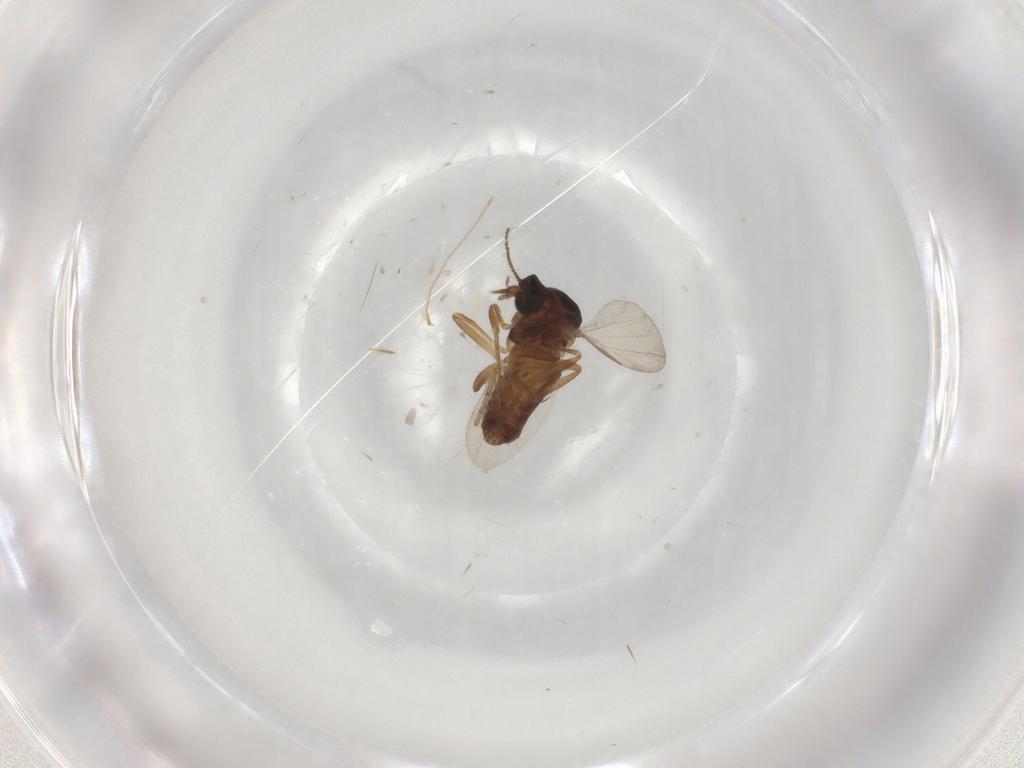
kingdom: Animalia
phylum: Arthropoda
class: Insecta
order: Diptera
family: Ceratopogonidae
